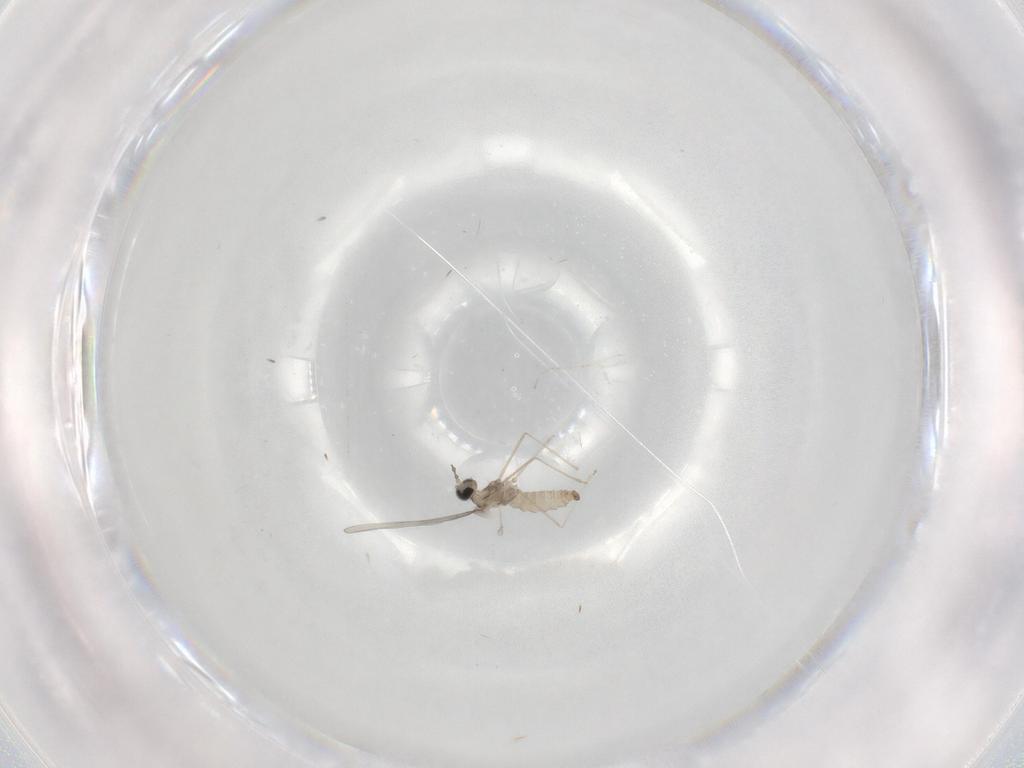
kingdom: Animalia
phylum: Arthropoda
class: Insecta
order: Diptera
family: Cecidomyiidae
